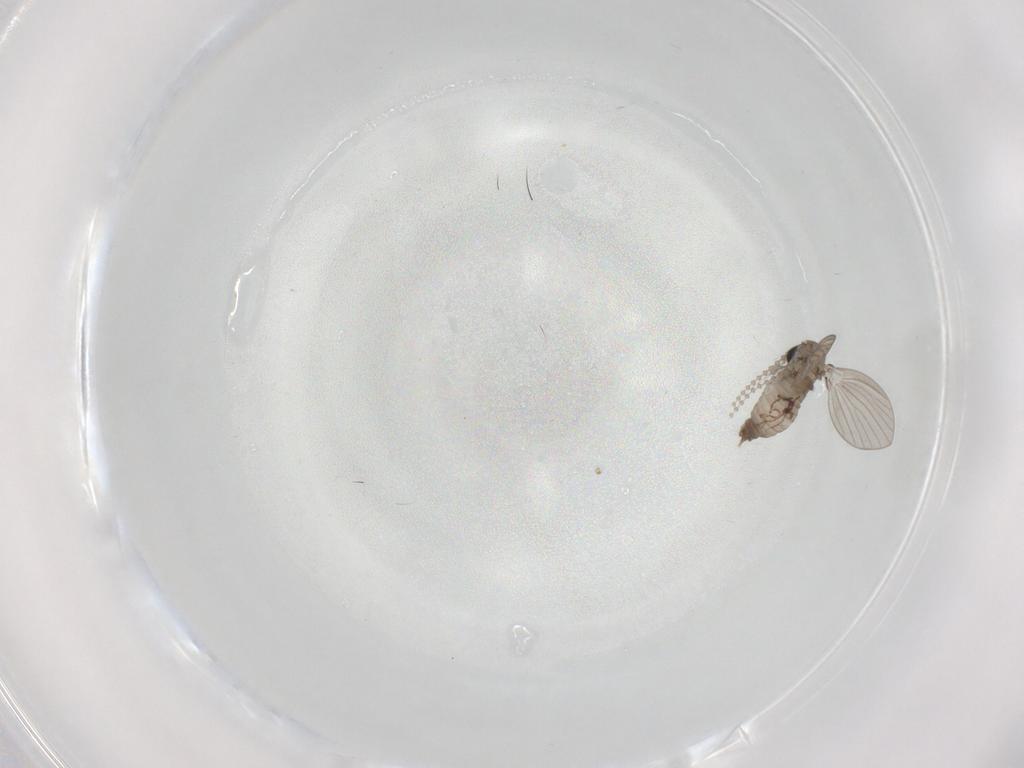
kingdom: Animalia
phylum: Arthropoda
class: Insecta
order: Diptera
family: Psychodidae
